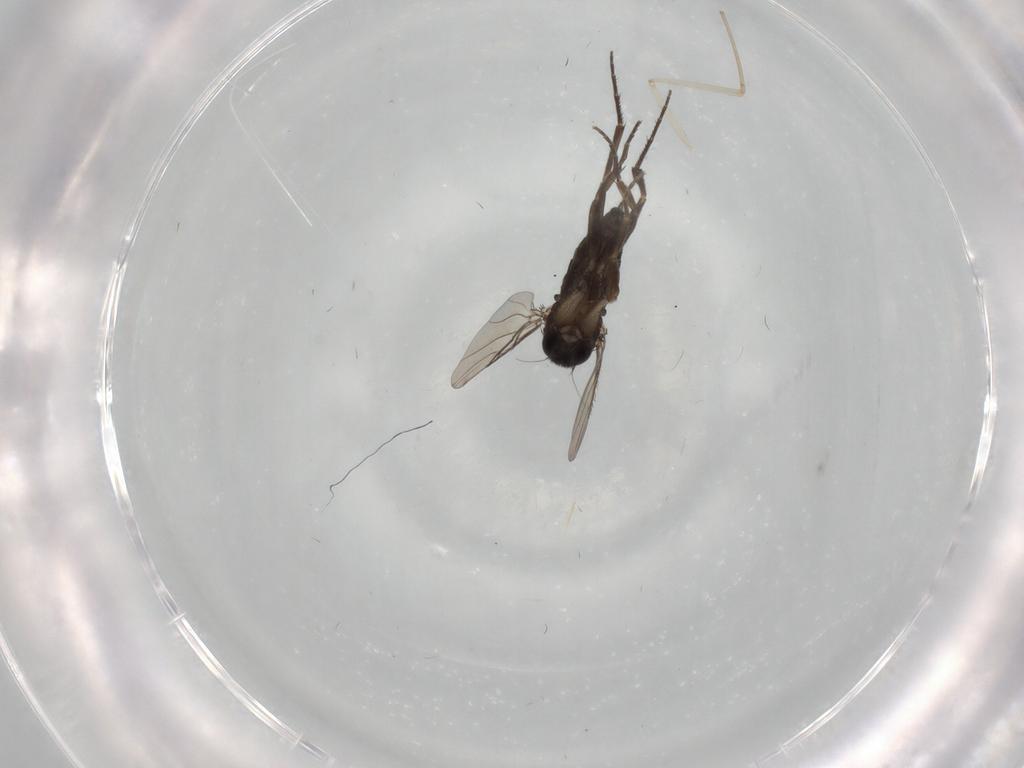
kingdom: Animalia
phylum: Arthropoda
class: Insecta
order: Diptera
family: Phoridae
